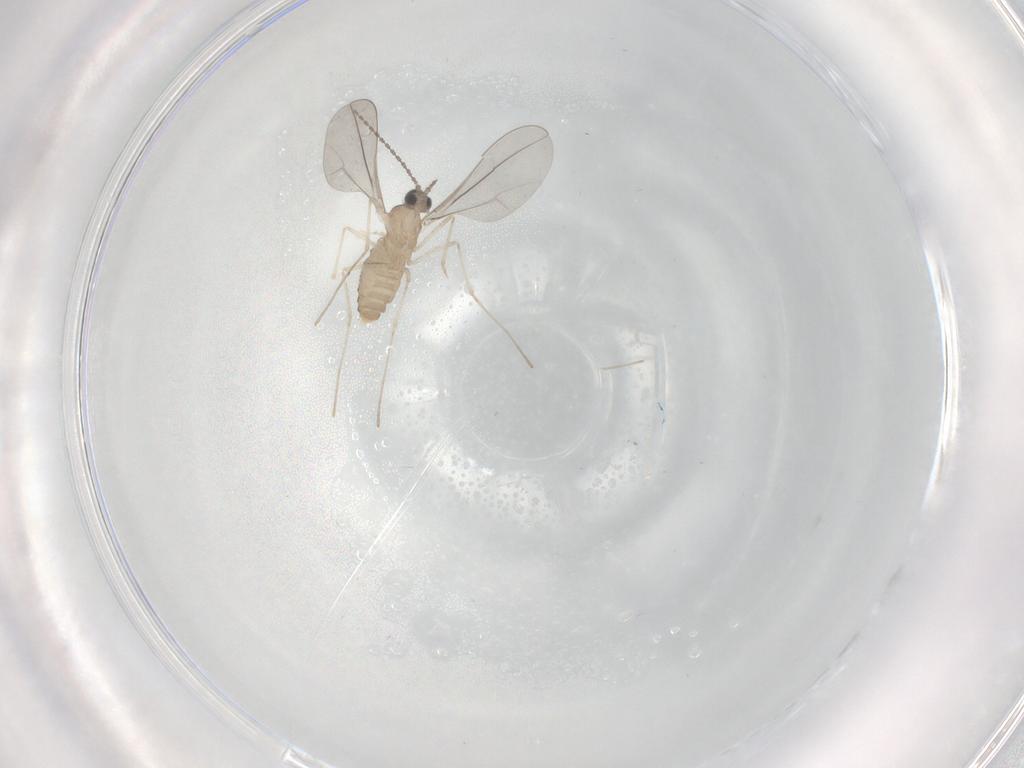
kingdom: Animalia
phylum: Arthropoda
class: Insecta
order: Diptera
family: Cecidomyiidae
